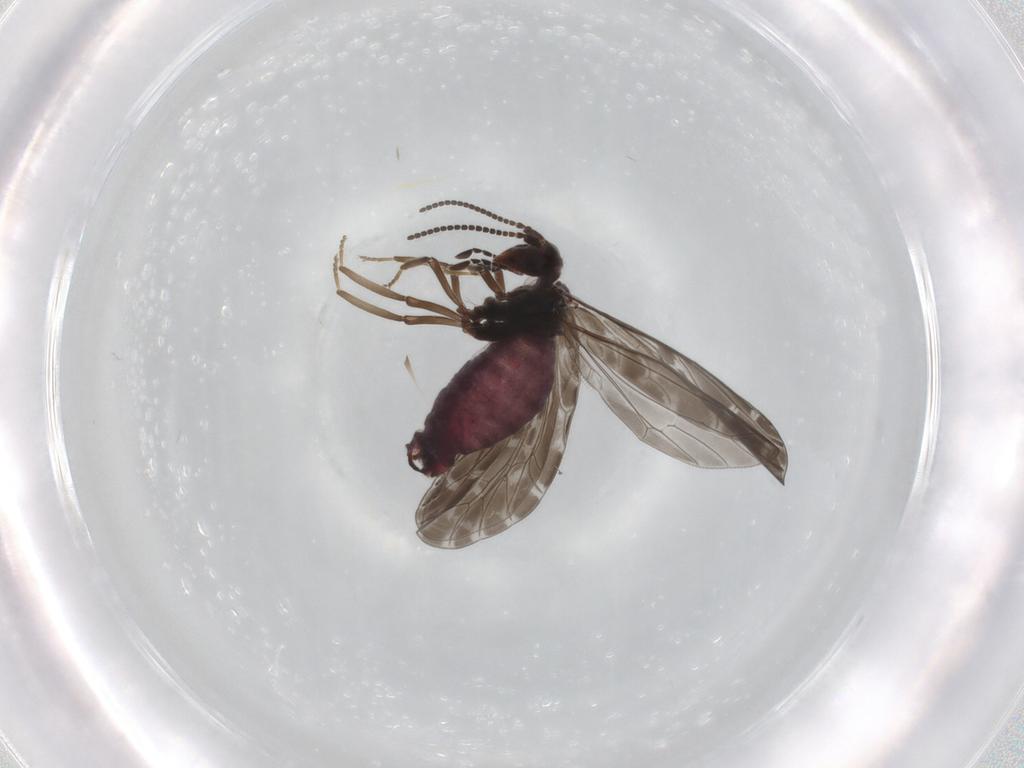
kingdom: Animalia
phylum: Arthropoda
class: Insecta
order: Neuroptera
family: Coniopterygidae
